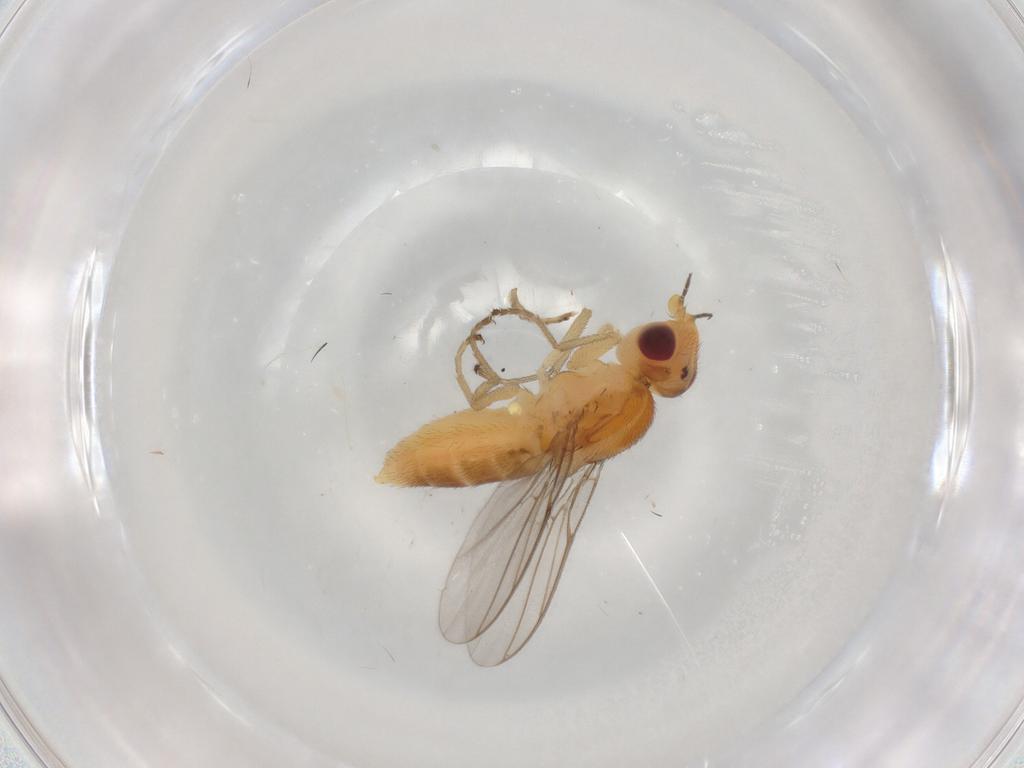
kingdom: Animalia
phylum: Arthropoda
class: Insecta
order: Diptera
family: Chloropidae
